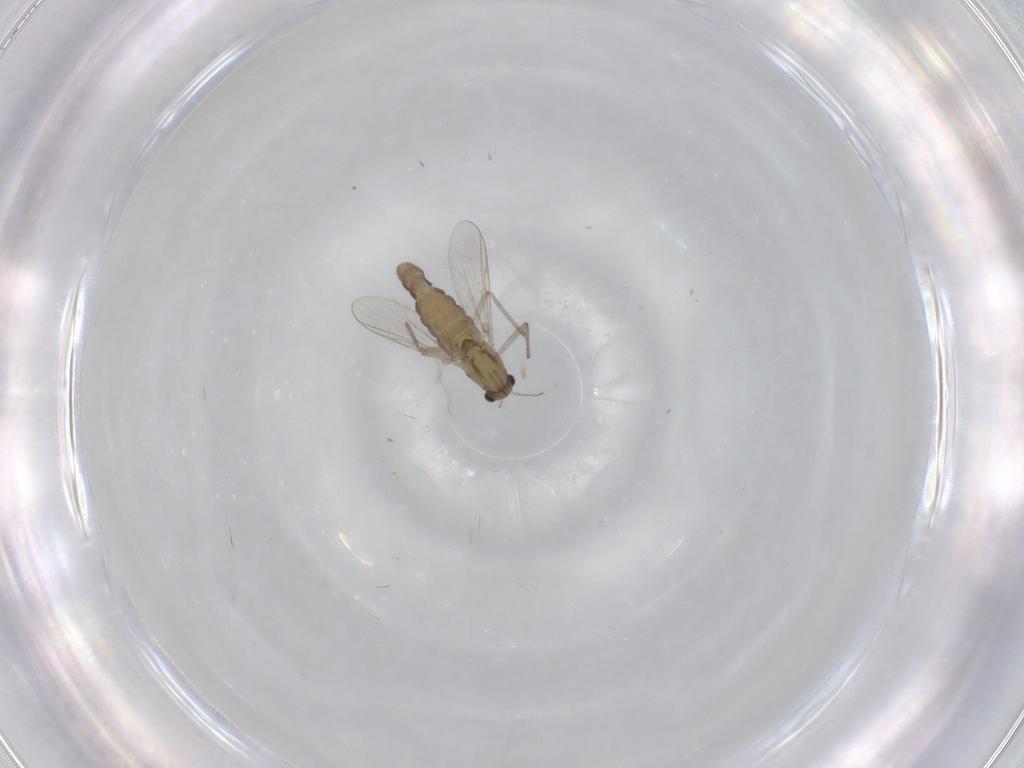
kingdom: Animalia
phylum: Arthropoda
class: Insecta
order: Diptera
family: Chironomidae
